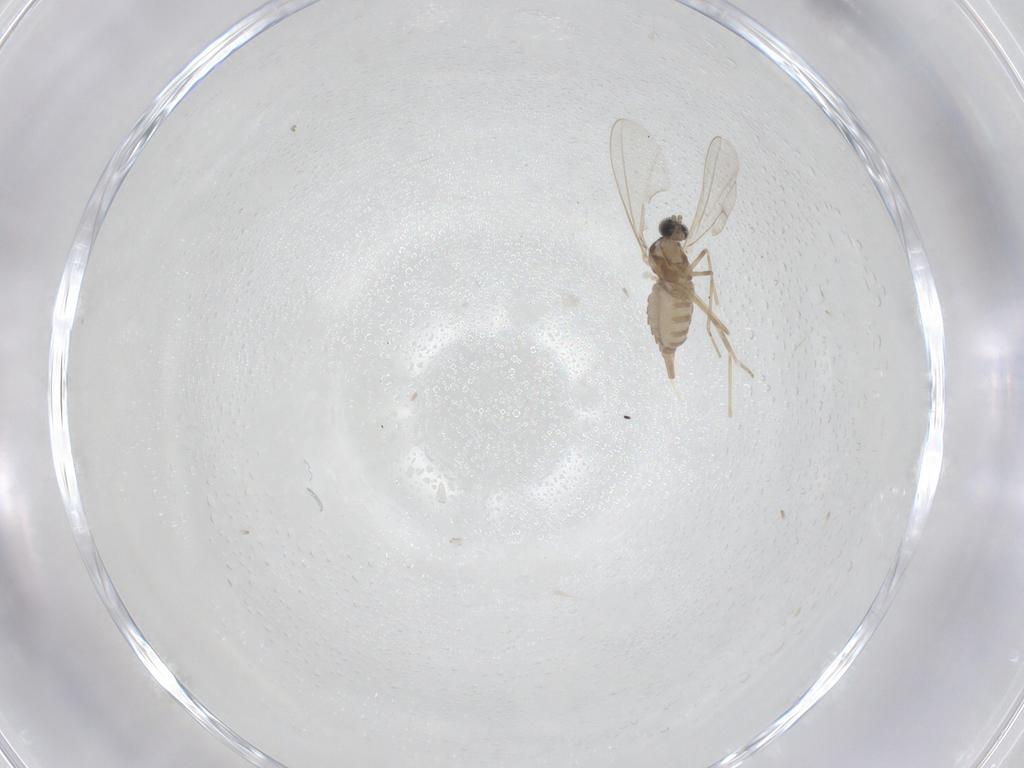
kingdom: Animalia
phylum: Arthropoda
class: Insecta
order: Diptera
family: Cecidomyiidae
